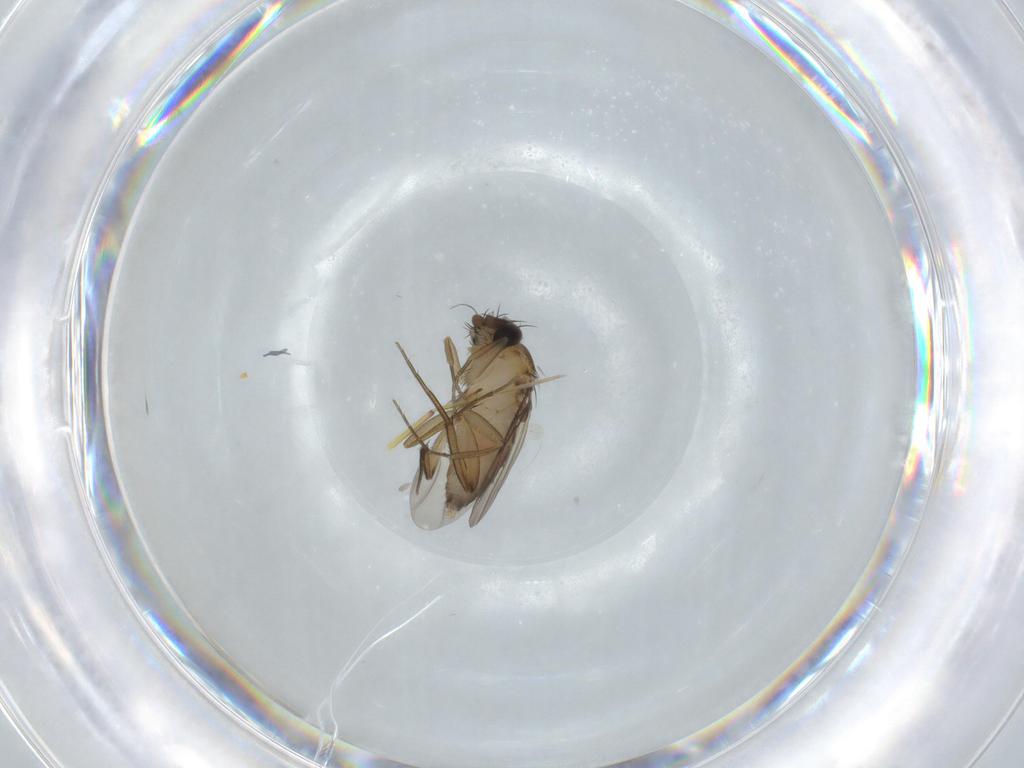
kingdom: Animalia
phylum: Arthropoda
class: Insecta
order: Diptera
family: Phoridae
